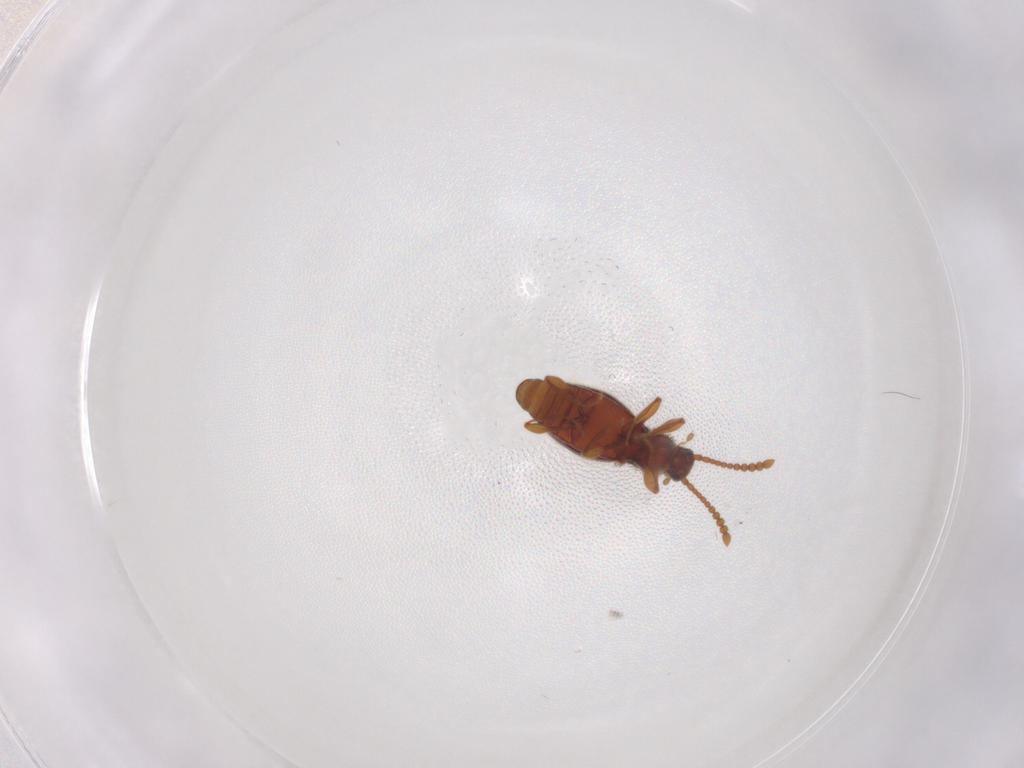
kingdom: Animalia
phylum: Arthropoda
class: Insecta
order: Coleoptera
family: Staphylinidae
